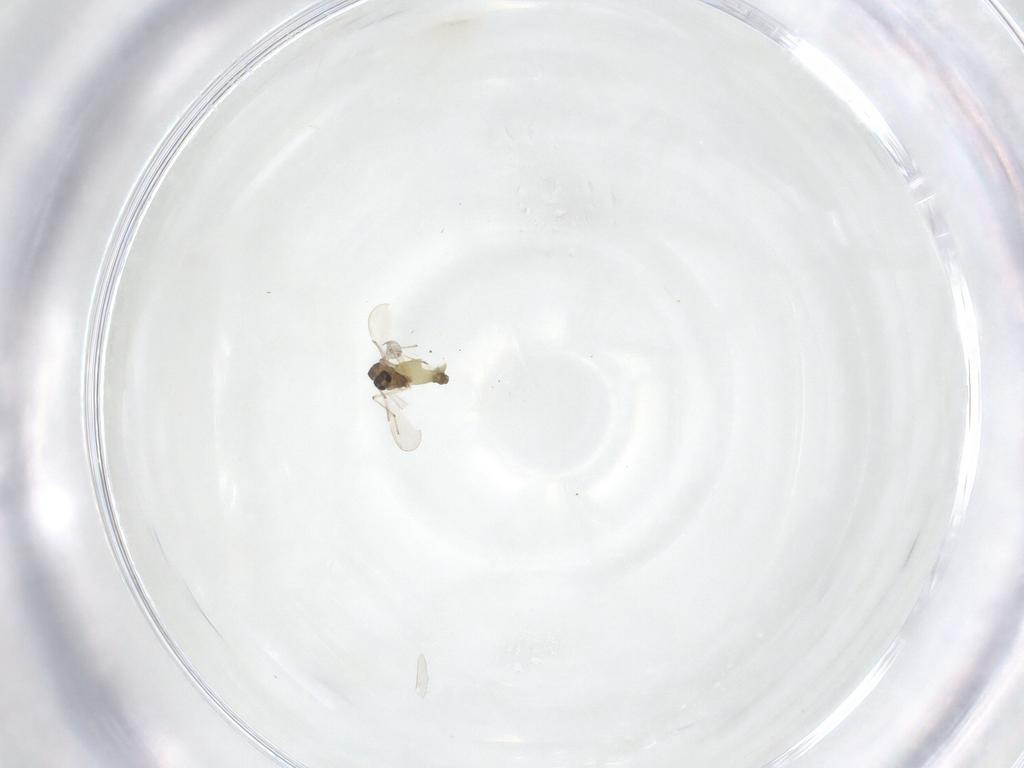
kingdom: Animalia
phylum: Arthropoda
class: Insecta
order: Diptera
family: Chironomidae
